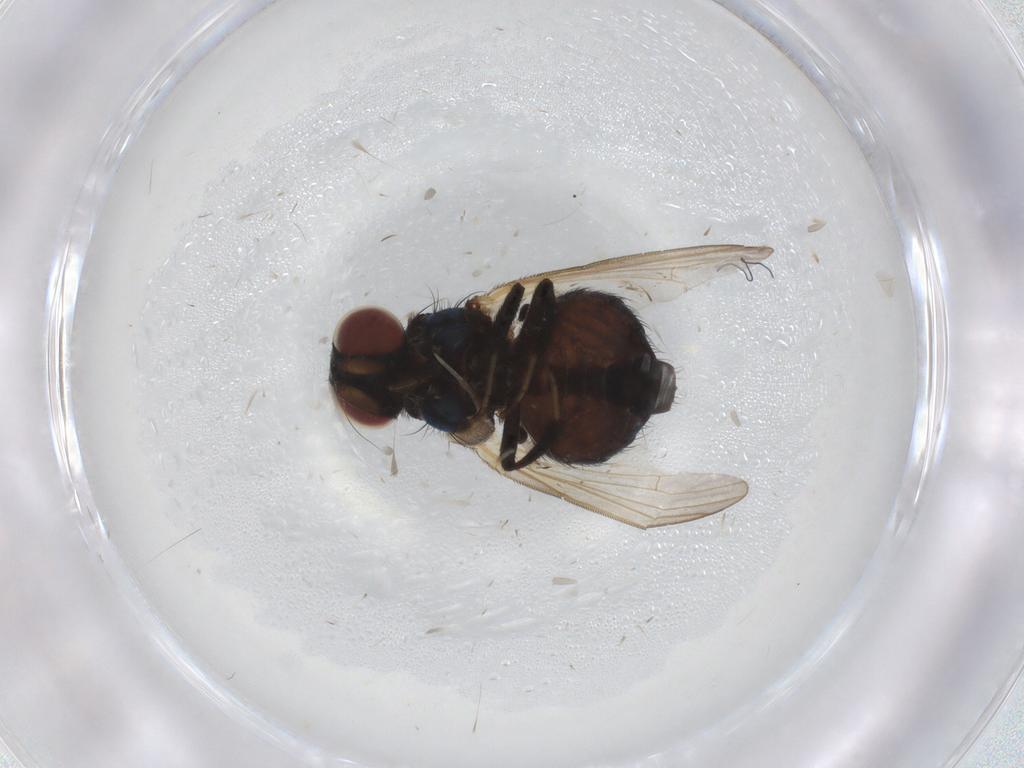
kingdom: Animalia
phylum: Arthropoda
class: Insecta
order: Diptera
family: Lonchaeidae
